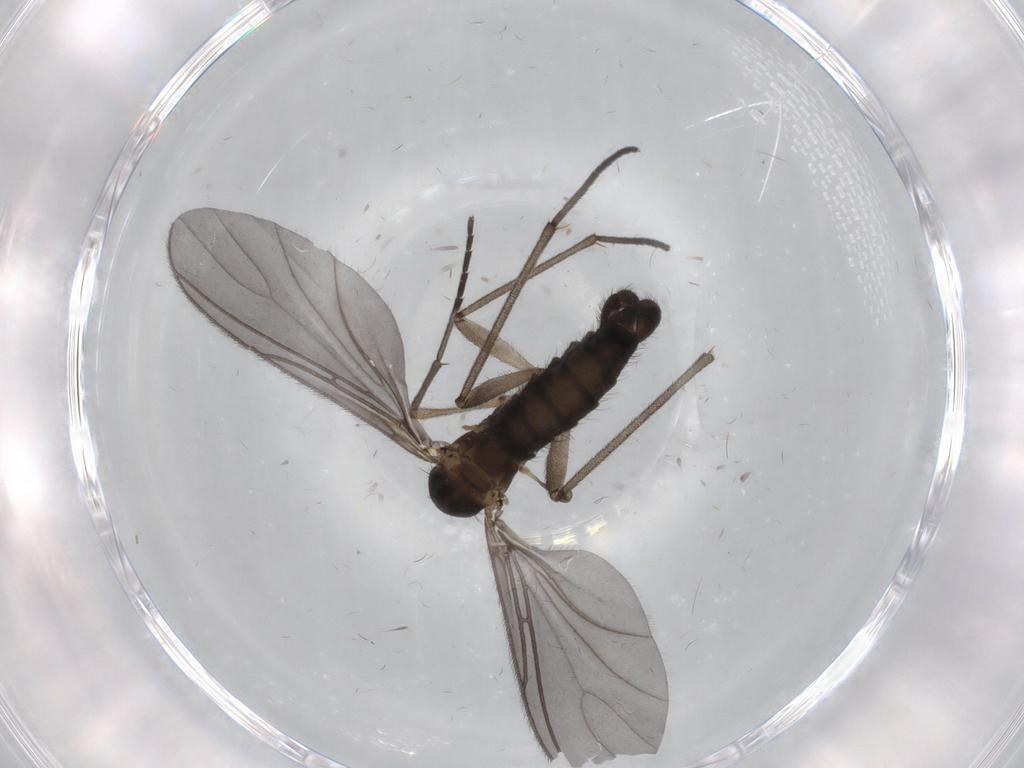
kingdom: Animalia
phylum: Arthropoda
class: Insecta
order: Diptera
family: Sciaridae
